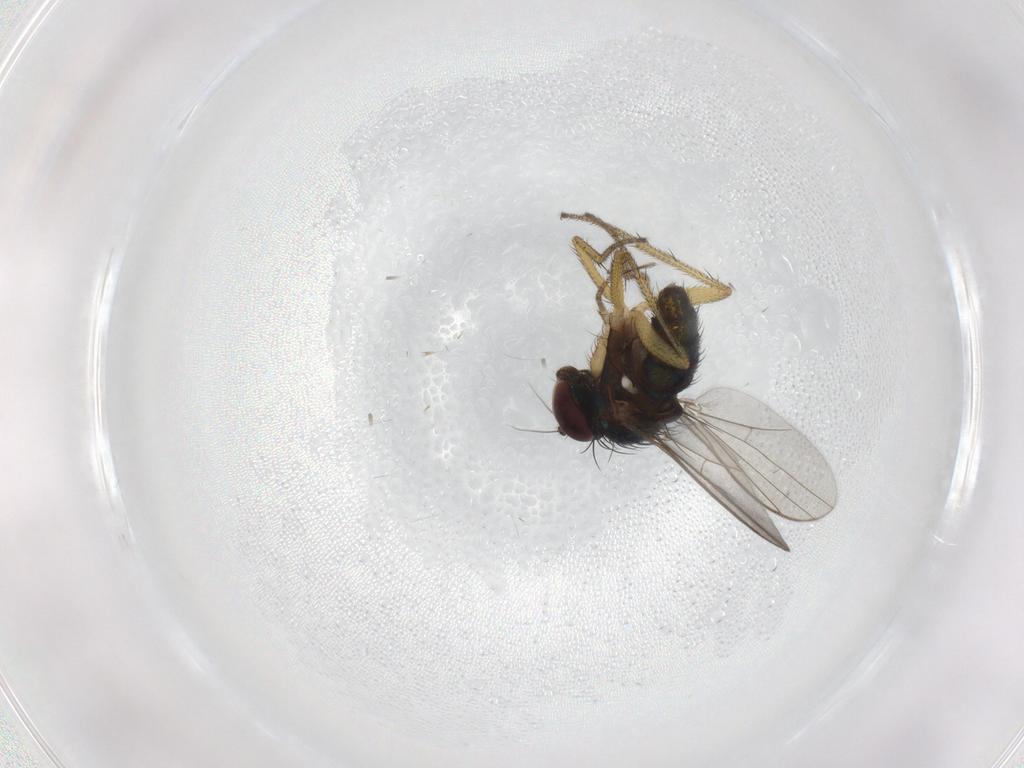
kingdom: Animalia
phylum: Arthropoda
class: Insecta
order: Diptera
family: Dolichopodidae
